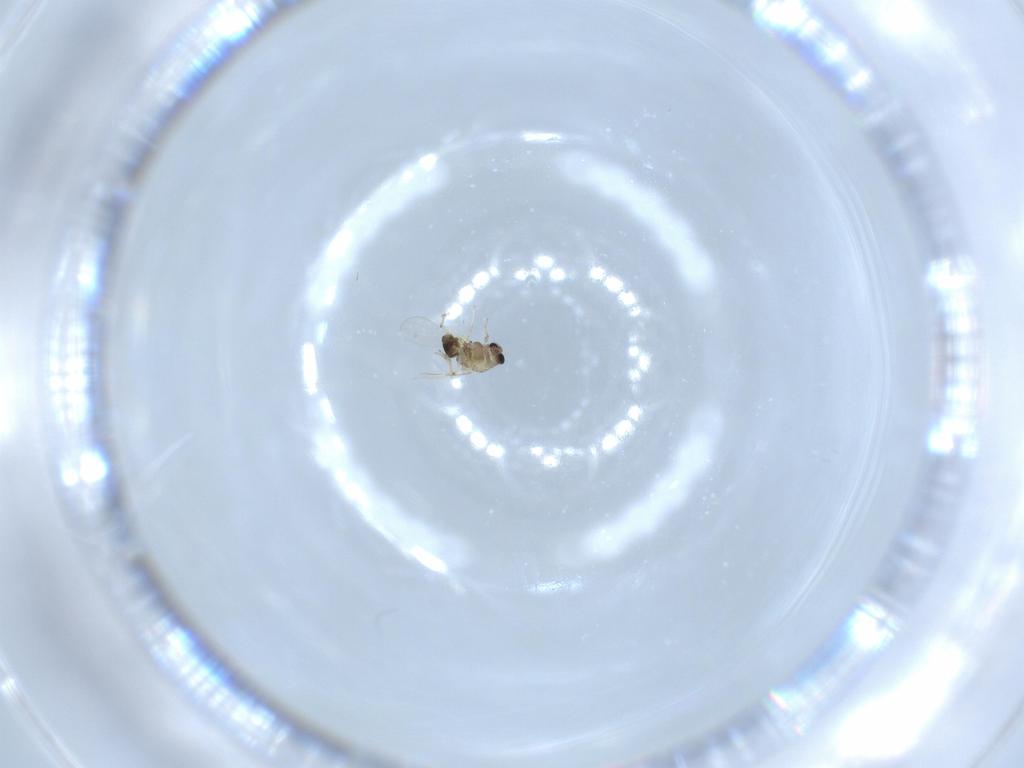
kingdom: Animalia
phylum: Arthropoda
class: Insecta
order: Diptera
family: Chironomidae
